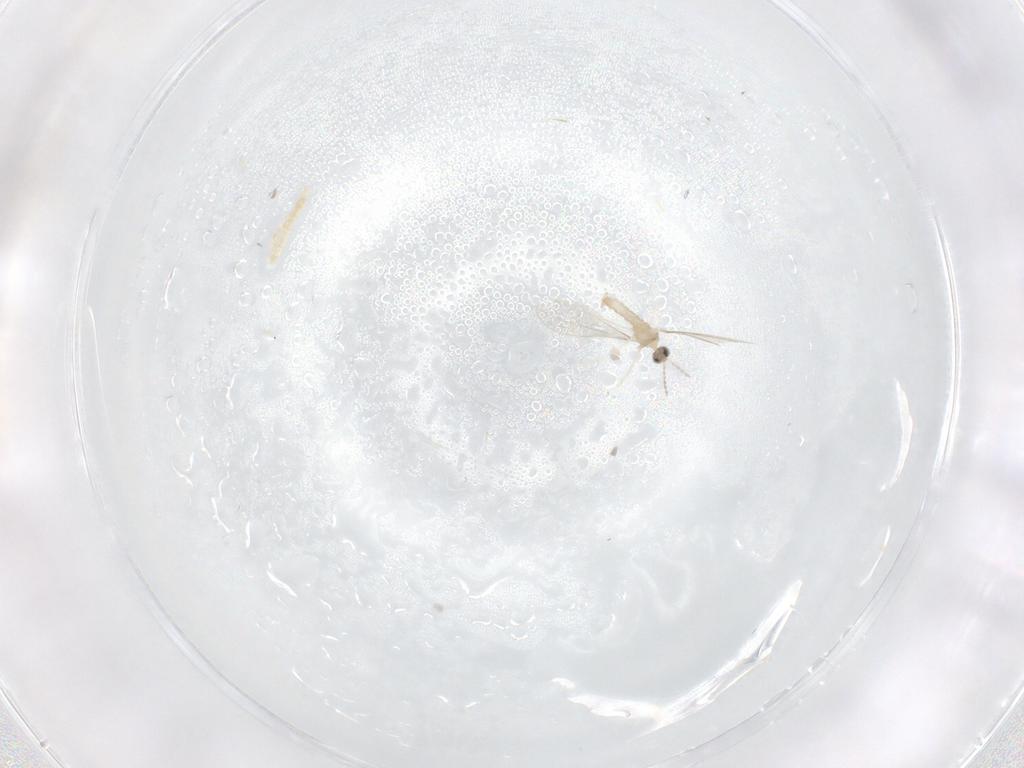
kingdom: Animalia
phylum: Arthropoda
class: Insecta
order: Diptera
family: Cecidomyiidae
